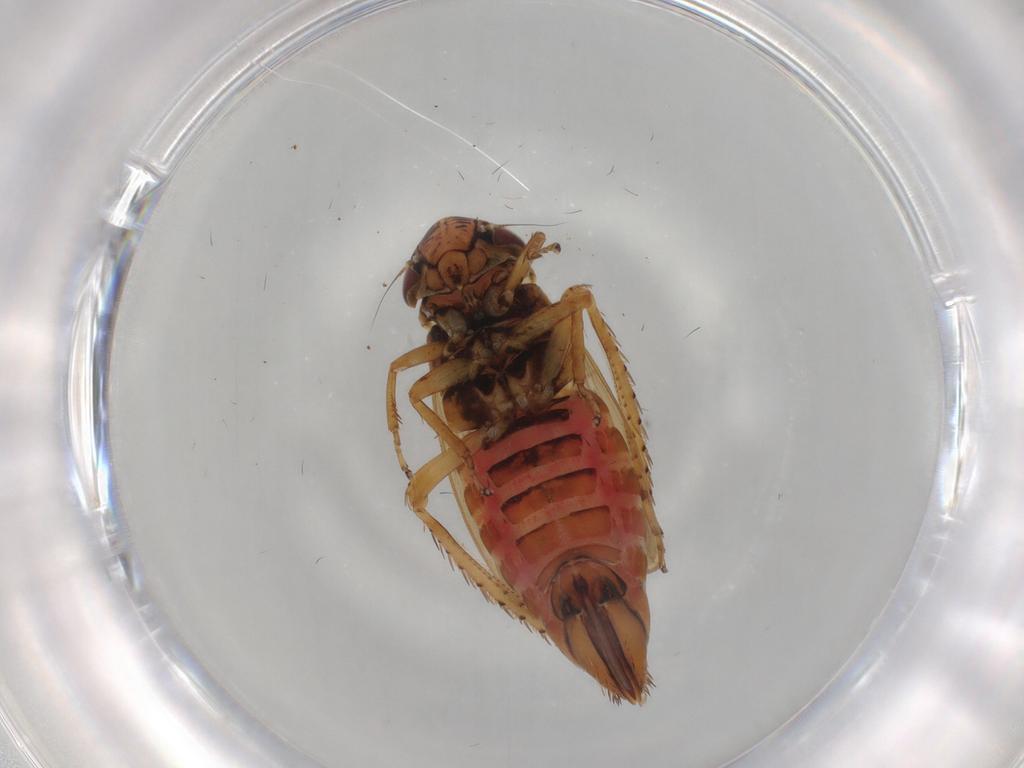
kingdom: Animalia
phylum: Arthropoda
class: Insecta
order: Hemiptera
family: Cicadellidae
